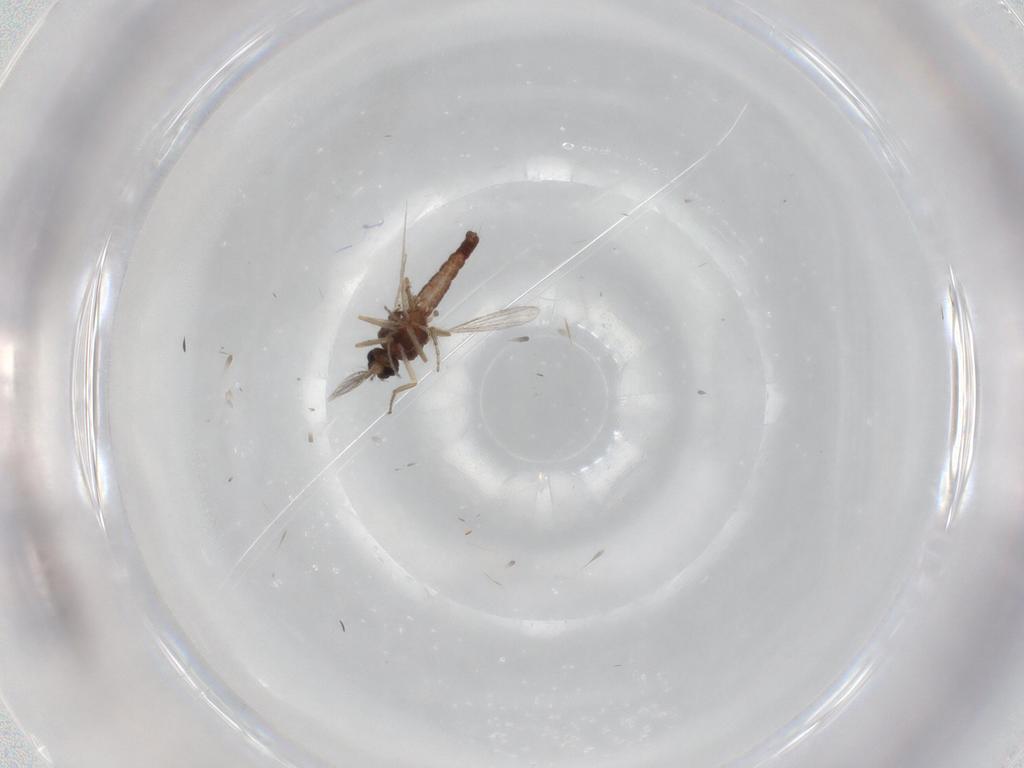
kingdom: Animalia
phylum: Arthropoda
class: Insecta
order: Diptera
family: Ceratopogonidae
